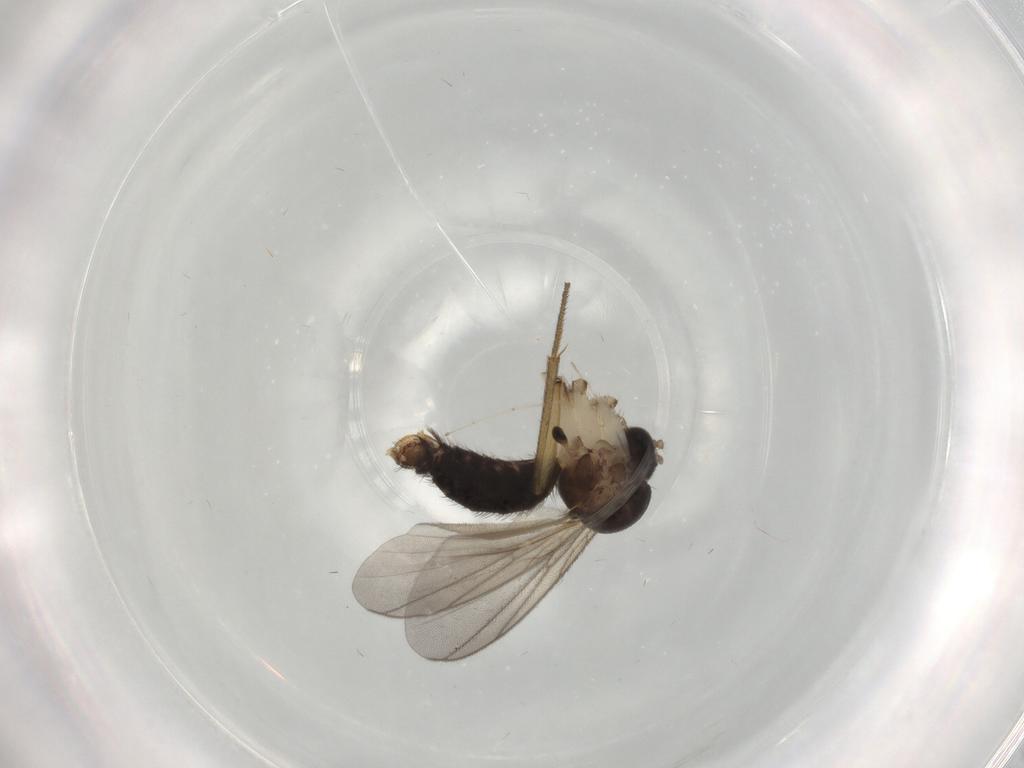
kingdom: Animalia
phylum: Arthropoda
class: Insecta
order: Diptera
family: Mycetophilidae
